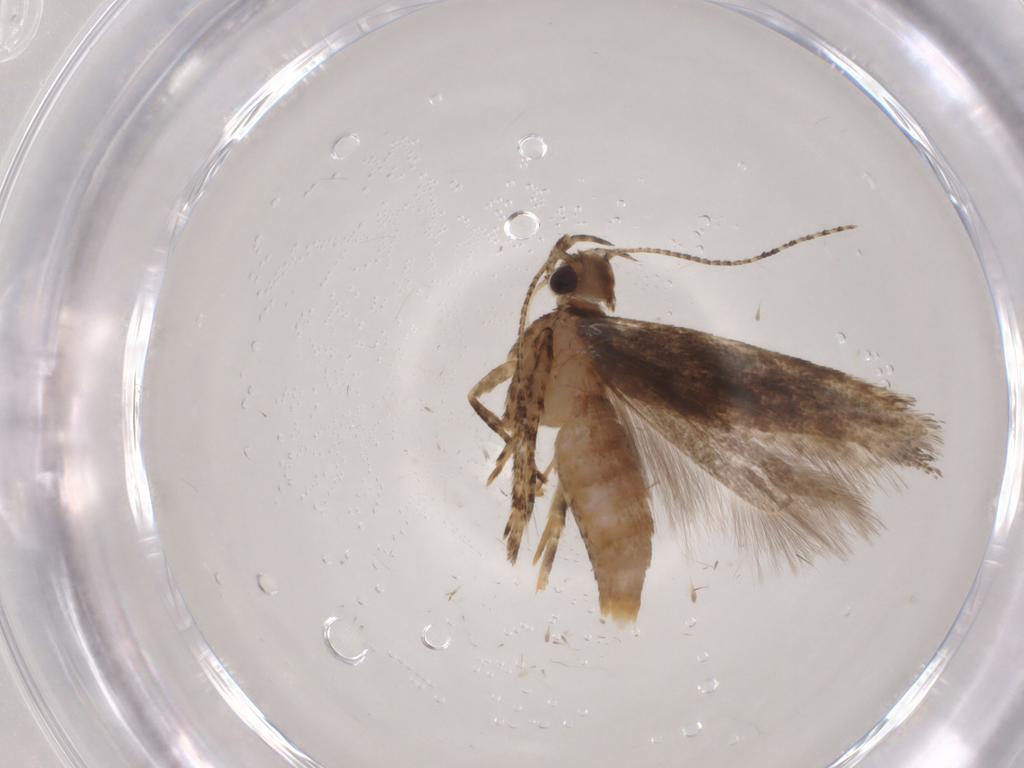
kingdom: Animalia
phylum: Arthropoda
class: Insecta
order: Lepidoptera
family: Gelechiidae
